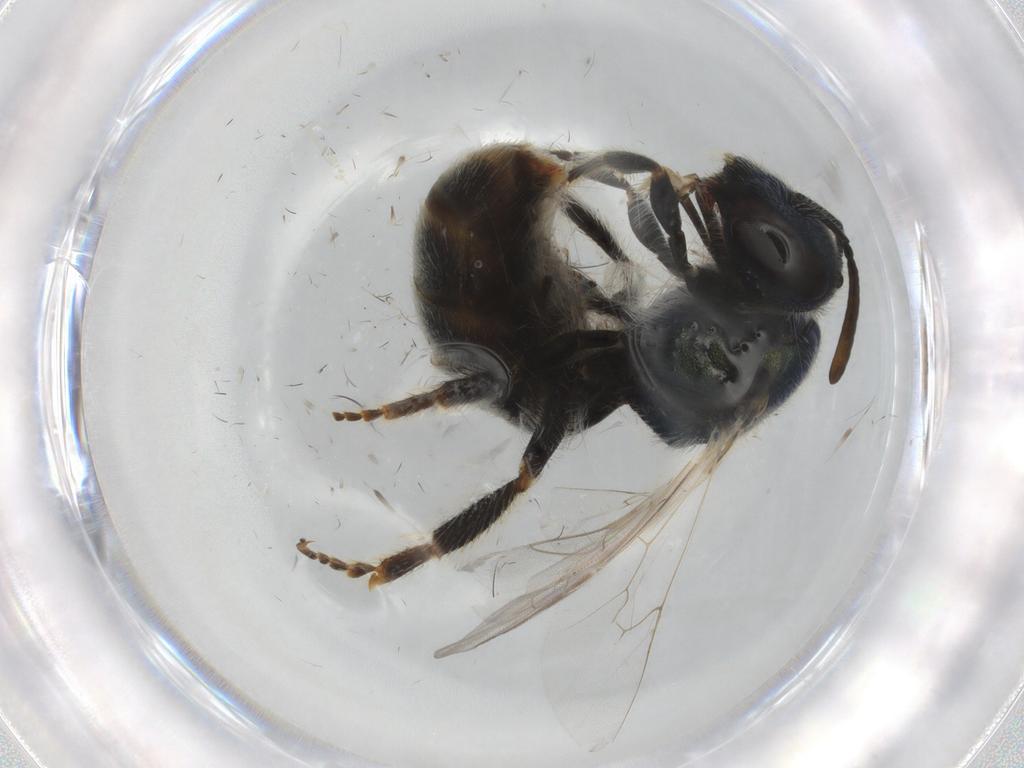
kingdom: Animalia
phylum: Arthropoda
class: Insecta
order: Hymenoptera
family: Halictidae
